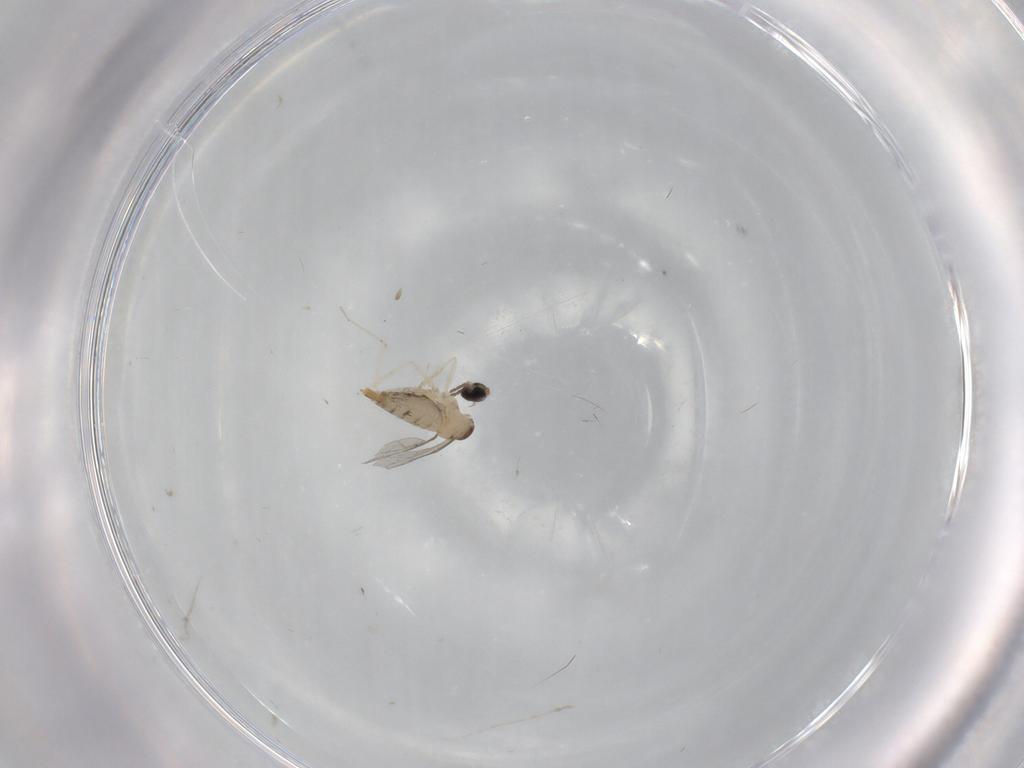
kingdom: Animalia
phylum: Arthropoda
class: Insecta
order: Diptera
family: Cecidomyiidae
